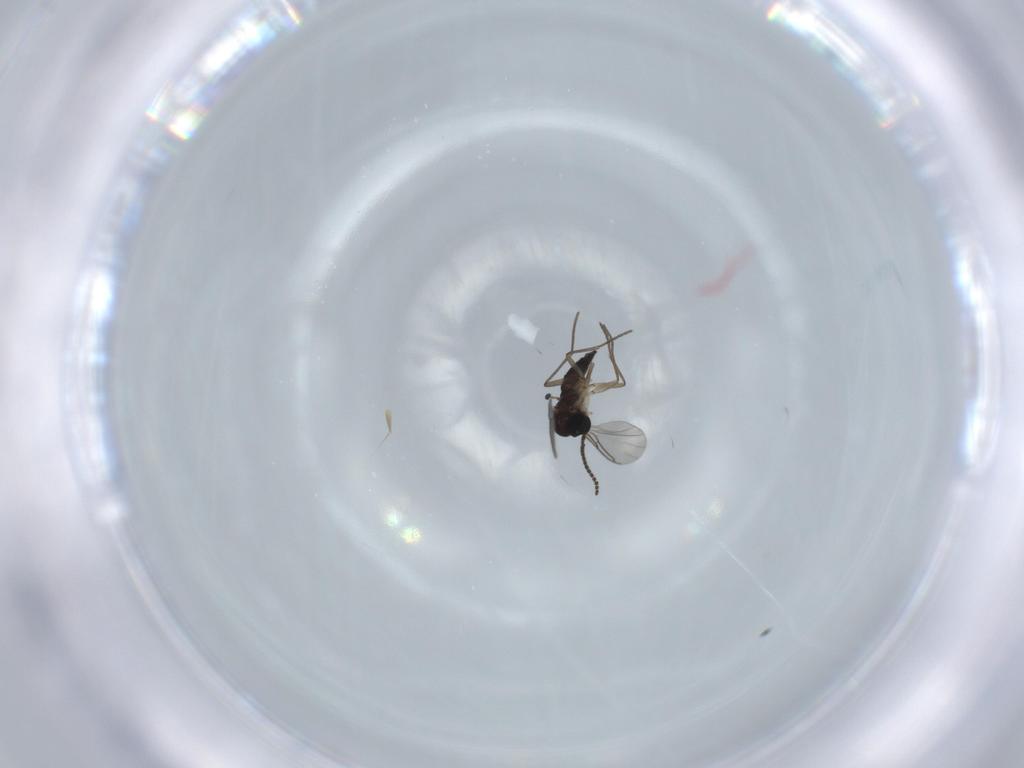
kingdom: Animalia
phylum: Arthropoda
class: Insecta
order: Diptera
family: Sciaridae
